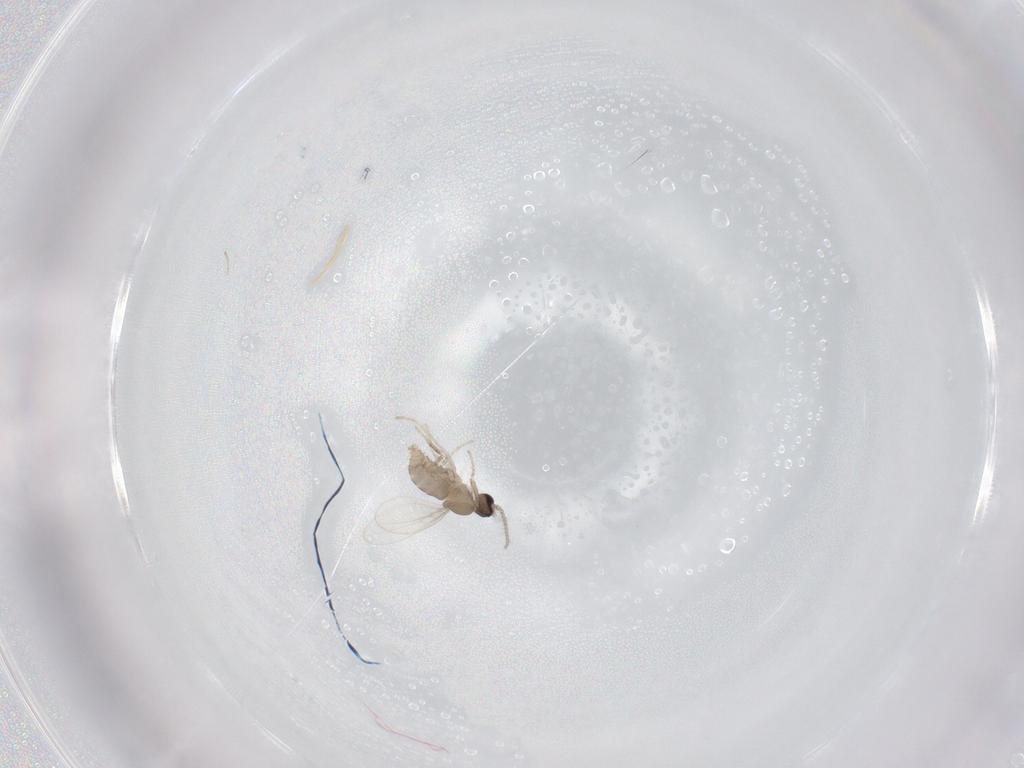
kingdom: Animalia
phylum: Arthropoda
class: Insecta
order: Diptera
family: Cecidomyiidae
